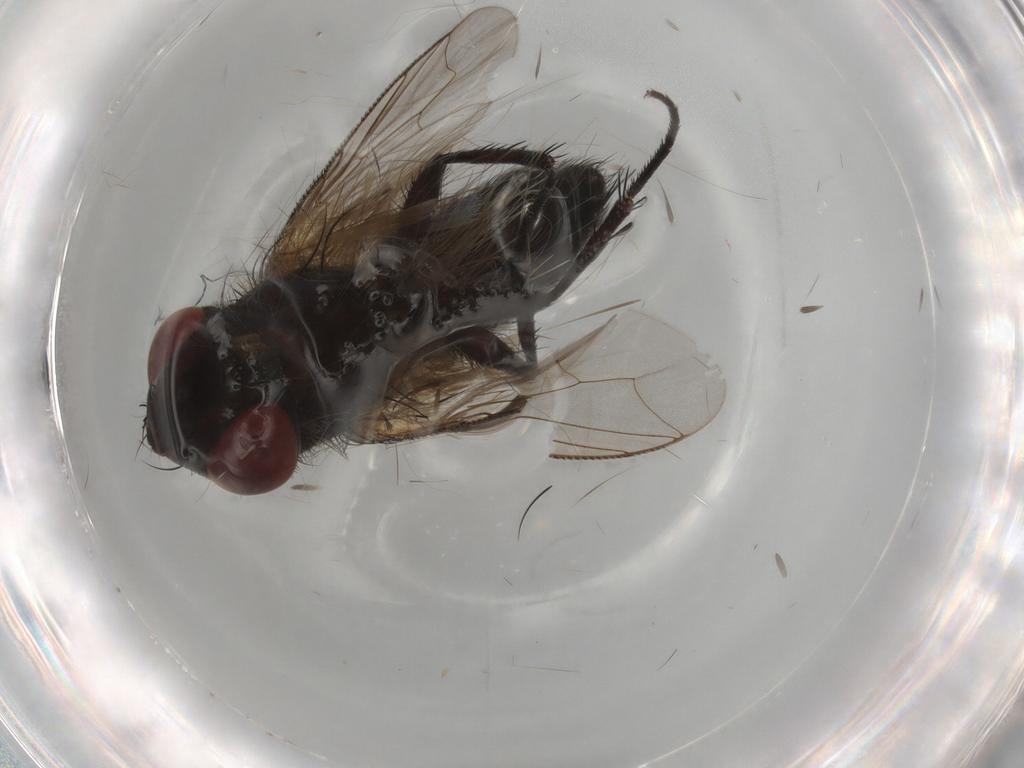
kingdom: Animalia
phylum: Arthropoda
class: Insecta
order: Diptera
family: Sarcophagidae
